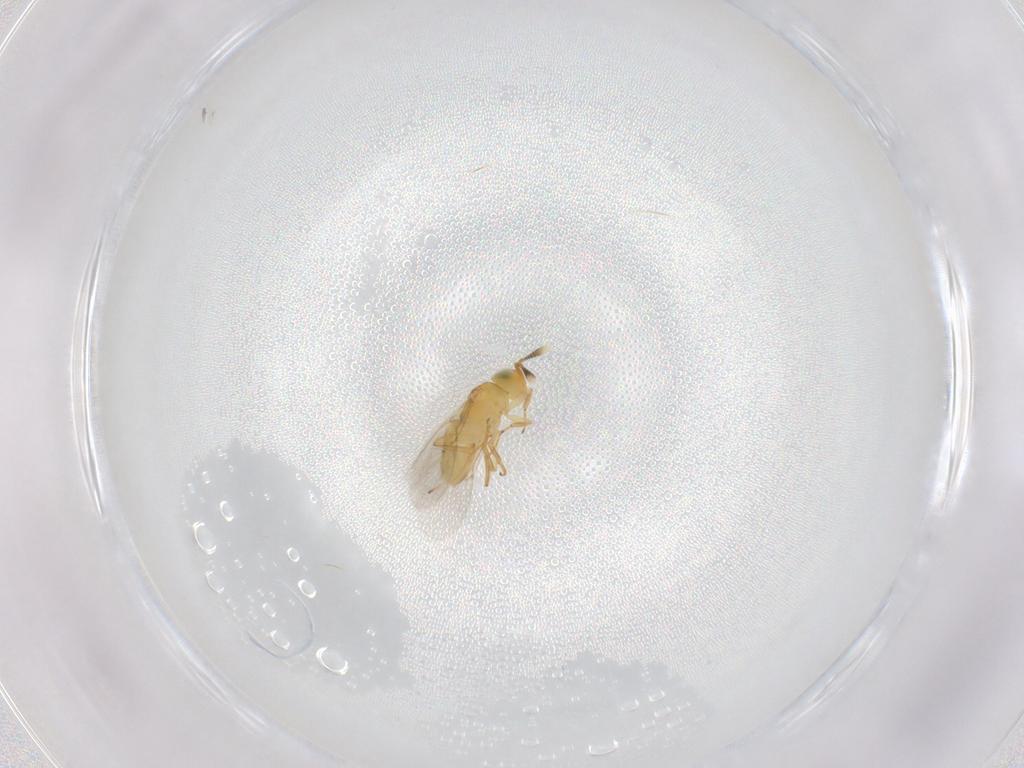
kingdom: Animalia
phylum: Arthropoda
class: Insecta
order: Hymenoptera
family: Encyrtidae
